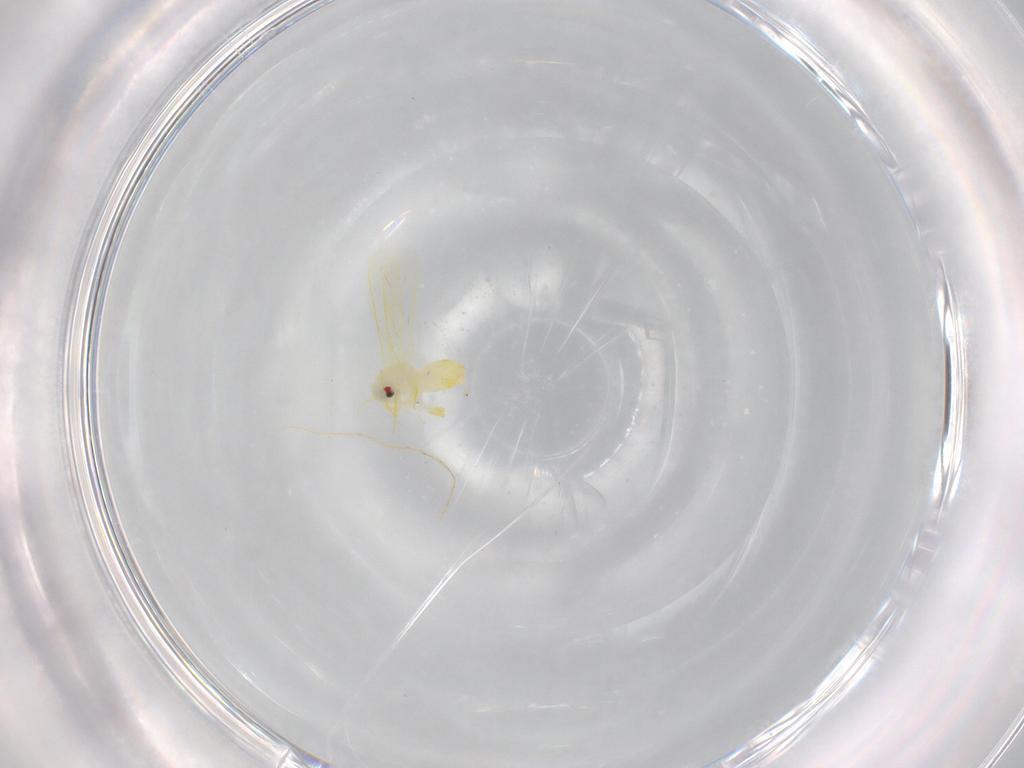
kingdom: Animalia
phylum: Arthropoda
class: Insecta
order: Hemiptera
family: Aleyrodidae
